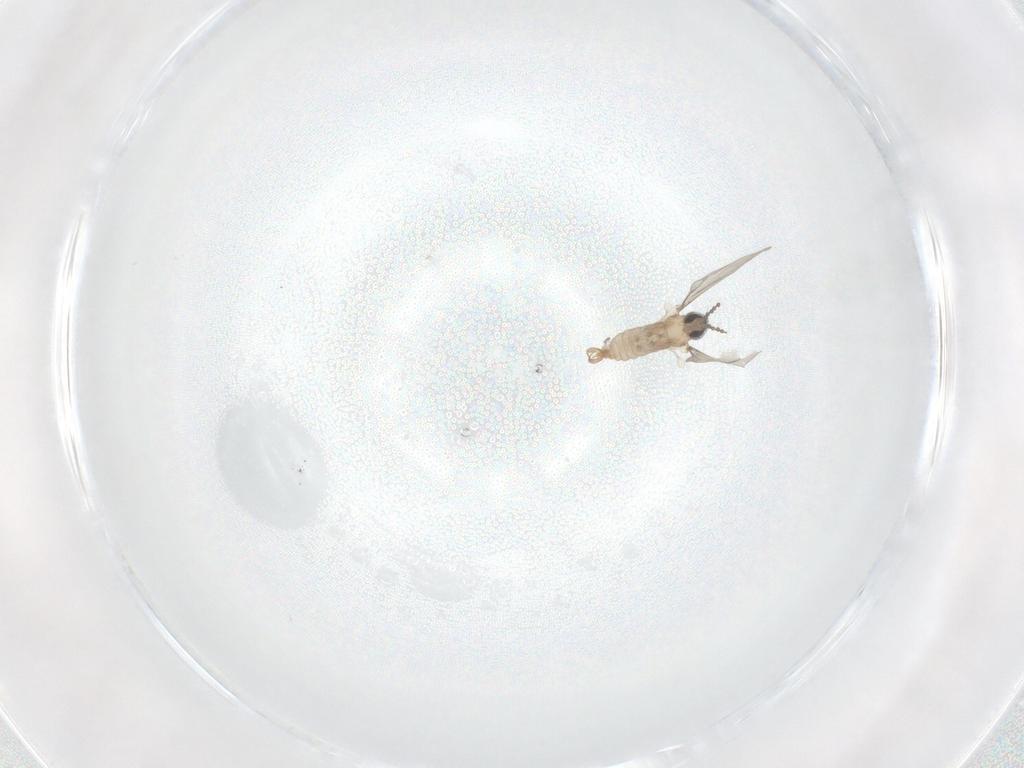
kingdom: Animalia
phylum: Arthropoda
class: Insecta
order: Diptera
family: Cecidomyiidae
